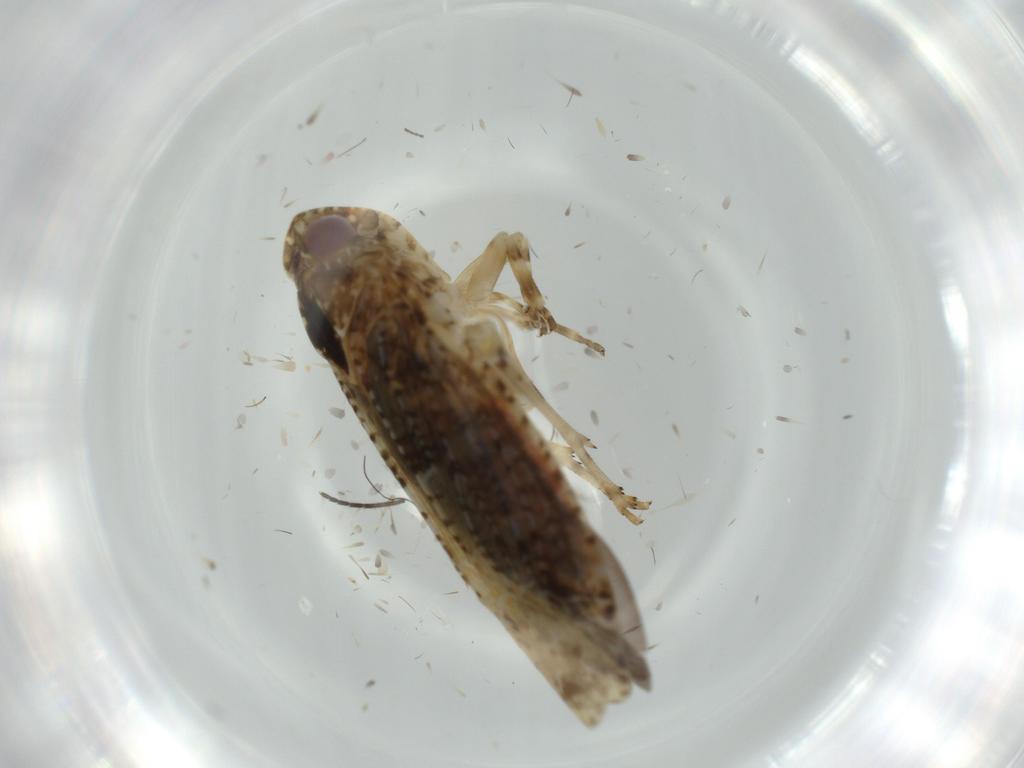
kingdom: Animalia
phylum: Arthropoda
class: Insecta
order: Hemiptera
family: Achilidae
